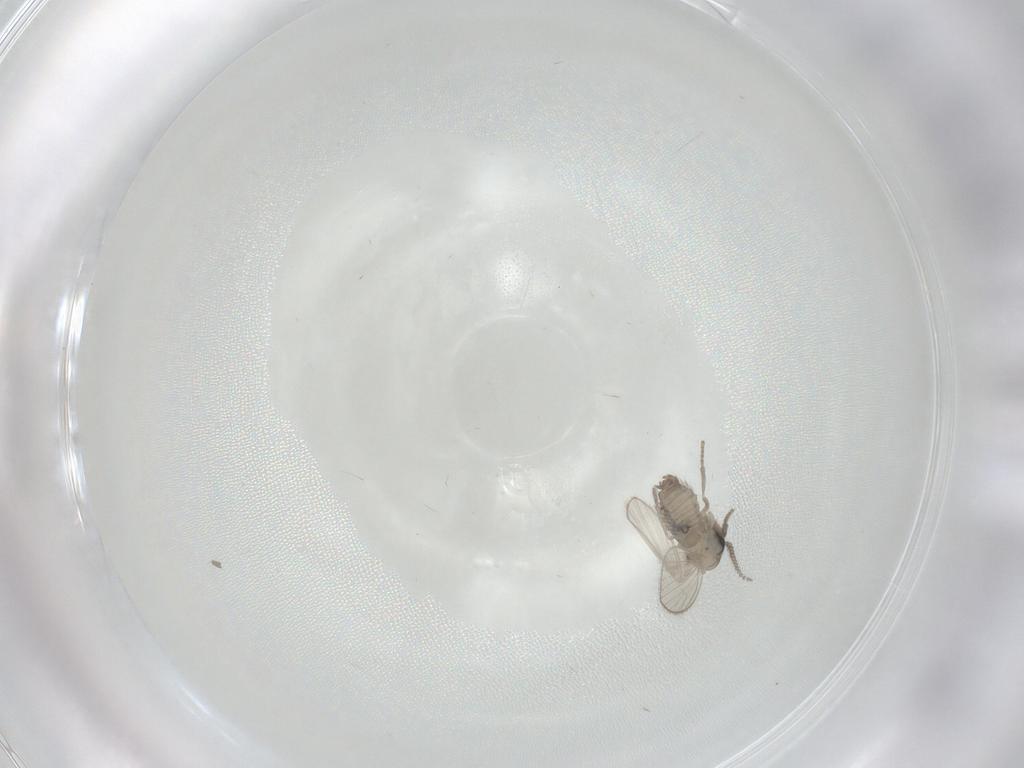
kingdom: Animalia
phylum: Arthropoda
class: Insecta
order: Diptera
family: Psychodidae
